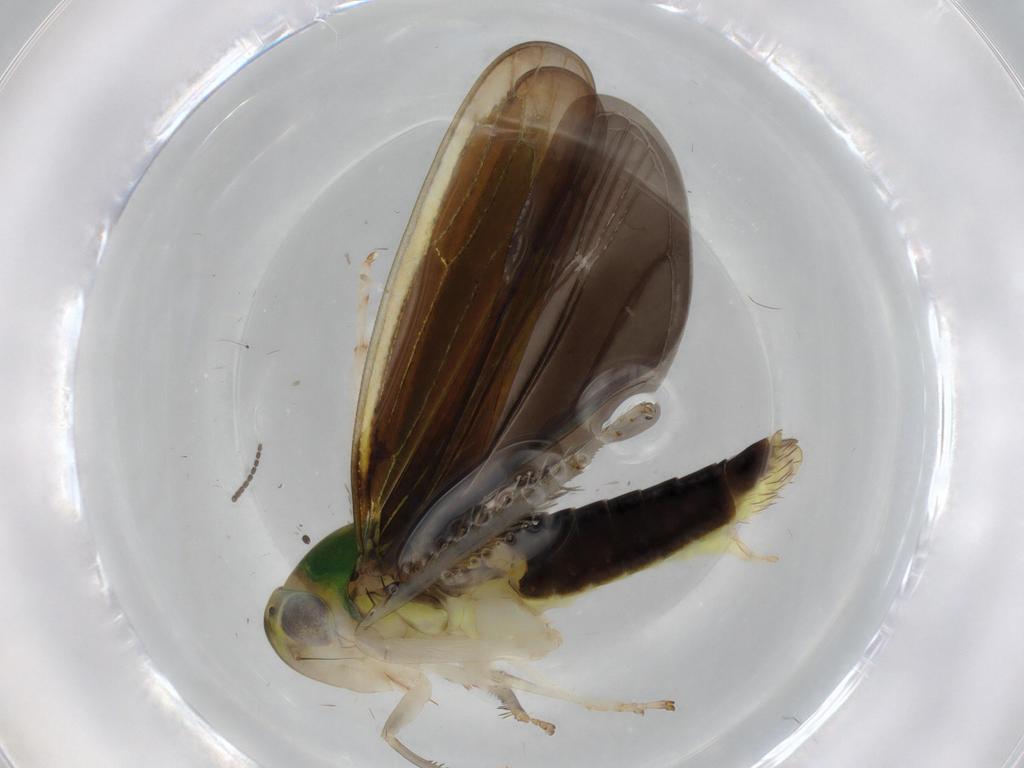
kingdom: Animalia
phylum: Arthropoda
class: Insecta
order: Hemiptera
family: Cicadellidae
